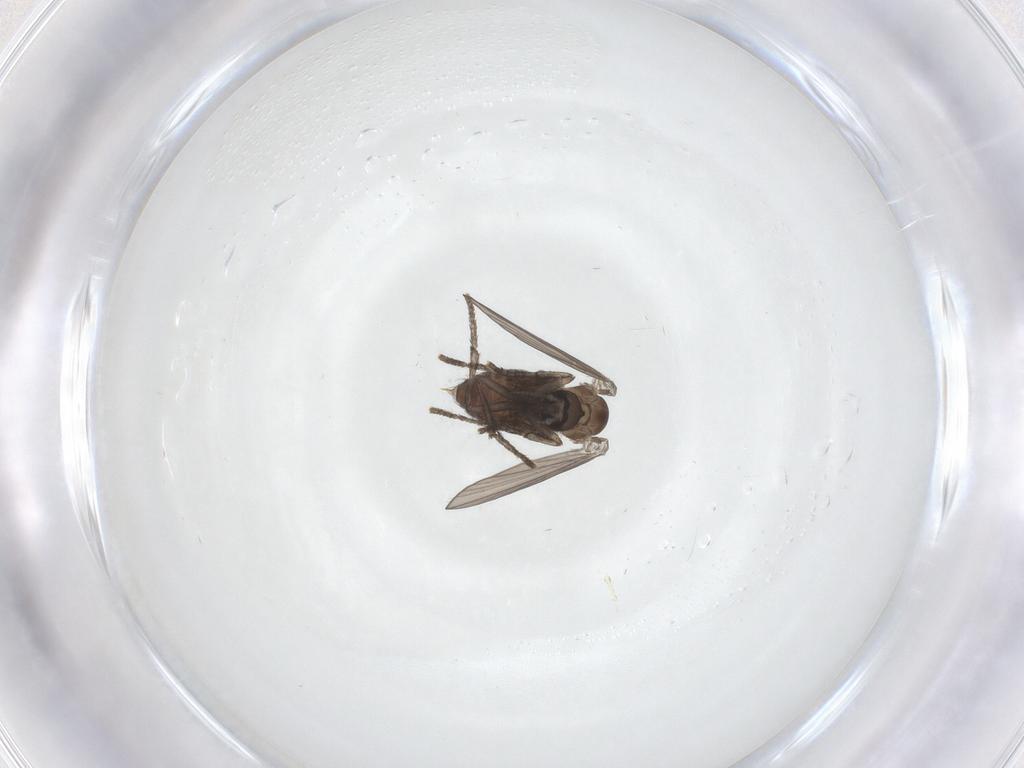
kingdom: Animalia
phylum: Arthropoda
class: Insecta
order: Diptera
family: Psychodidae
